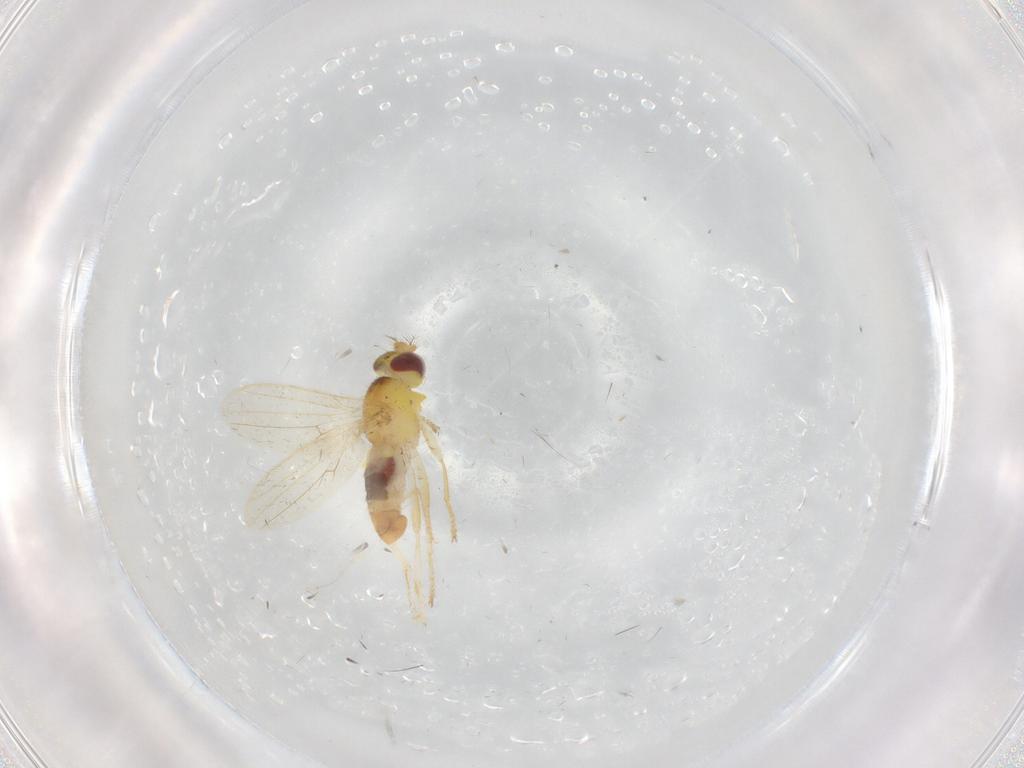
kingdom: Animalia
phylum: Arthropoda
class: Insecta
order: Diptera
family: Periscelididae
